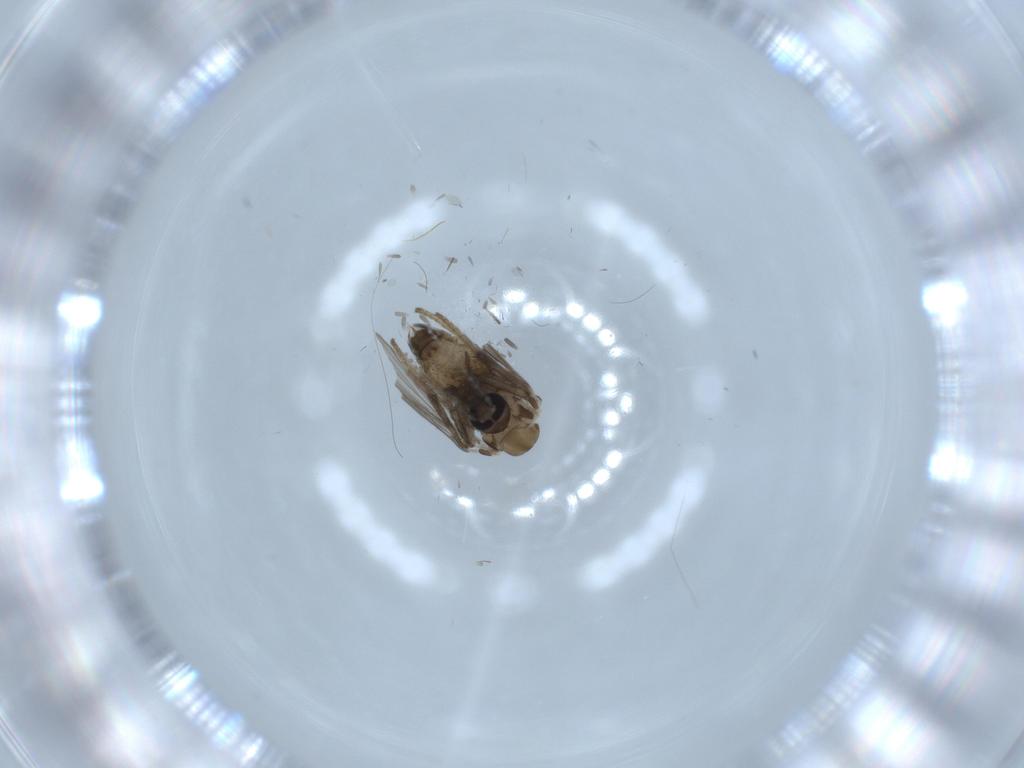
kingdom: Animalia
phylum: Arthropoda
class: Insecta
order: Diptera
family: Psychodidae
